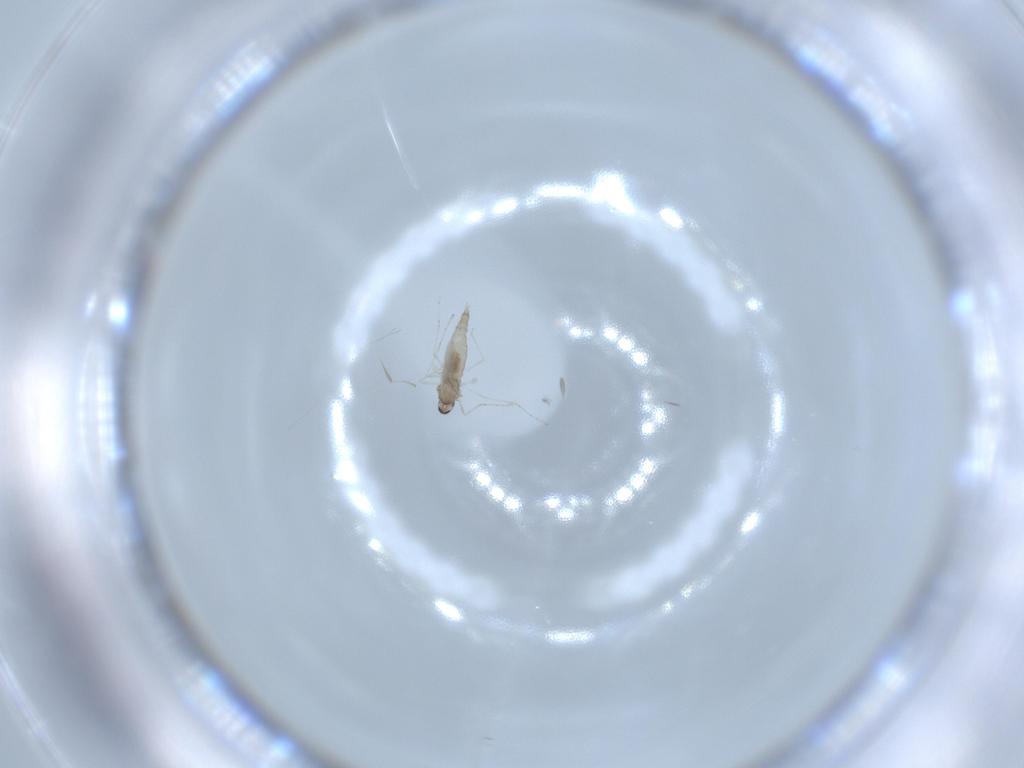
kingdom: Animalia
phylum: Arthropoda
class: Insecta
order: Diptera
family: Cecidomyiidae
